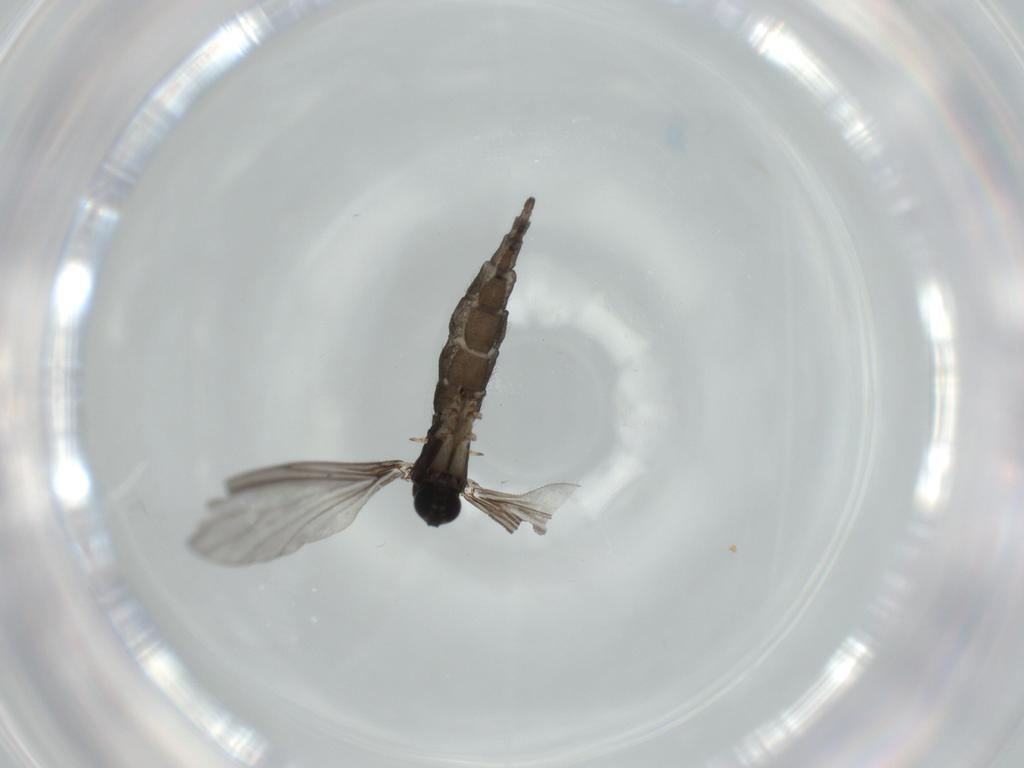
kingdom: Animalia
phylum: Arthropoda
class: Insecta
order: Diptera
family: Sciaridae
